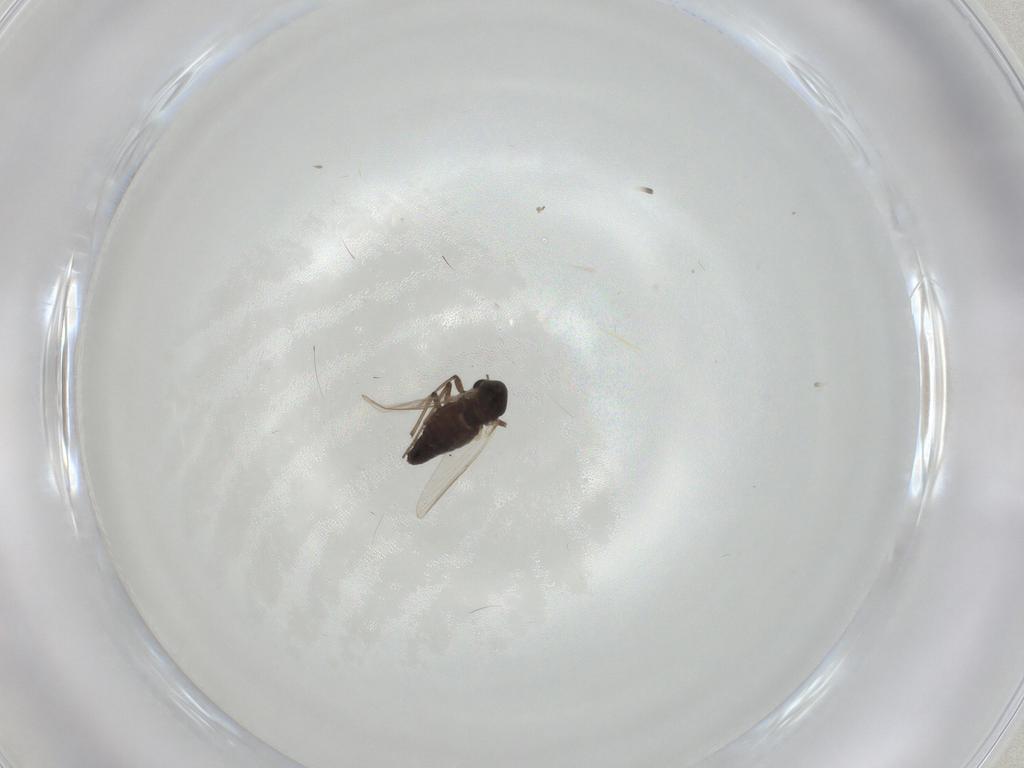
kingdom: Animalia
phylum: Arthropoda
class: Insecta
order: Diptera
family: Chironomidae
